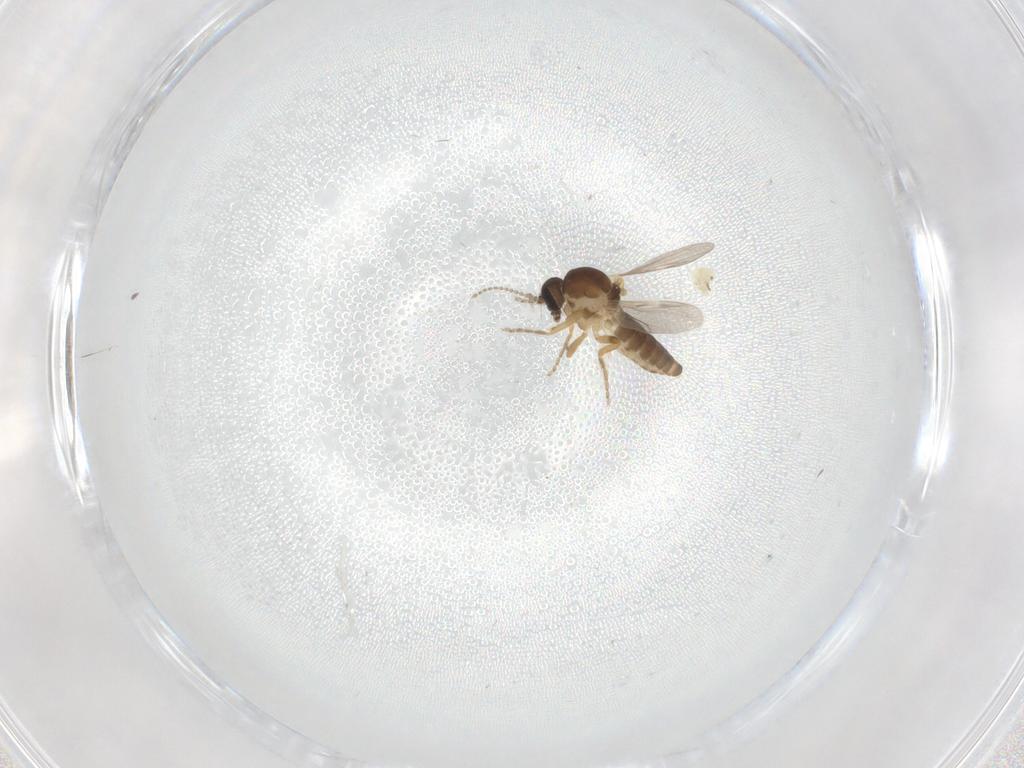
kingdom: Animalia
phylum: Arthropoda
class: Insecta
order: Diptera
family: Ceratopogonidae
